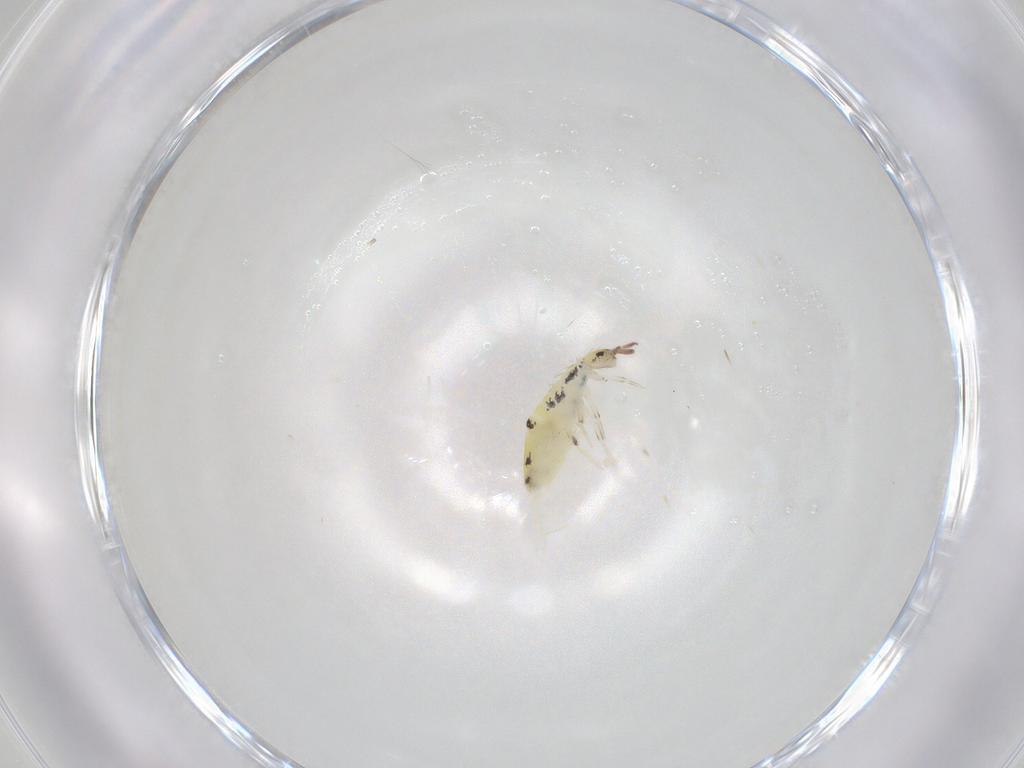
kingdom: Animalia
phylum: Arthropoda
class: Collembola
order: Entomobryomorpha
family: Entomobryidae
